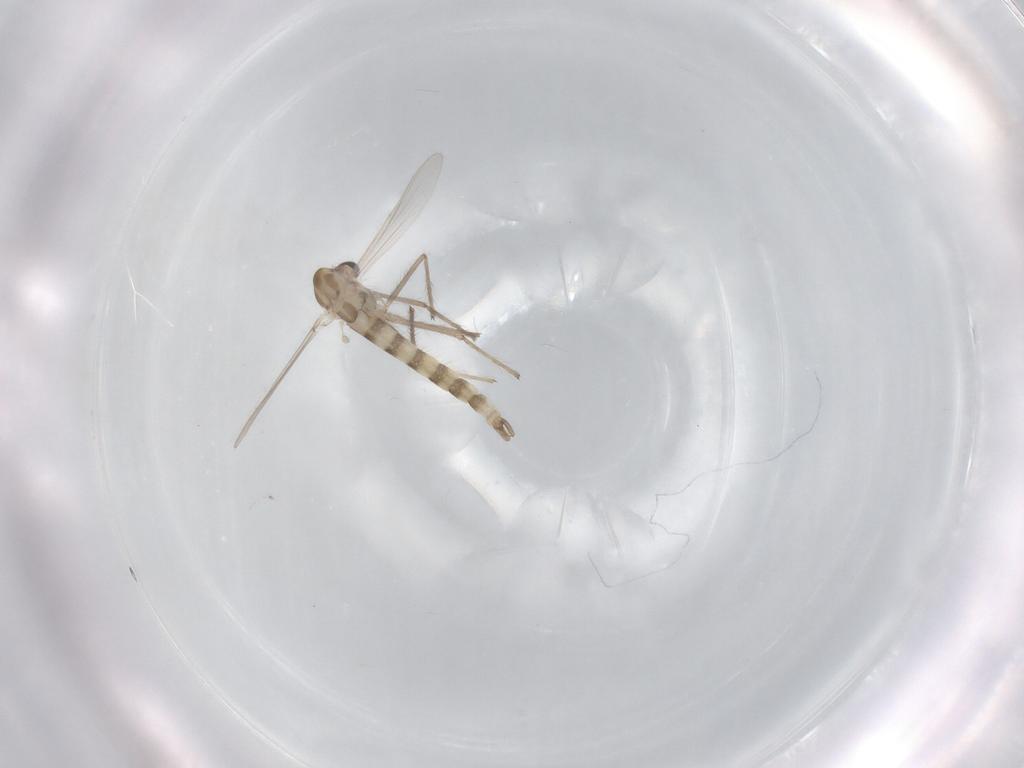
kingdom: Animalia
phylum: Arthropoda
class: Insecta
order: Diptera
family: Chironomidae
